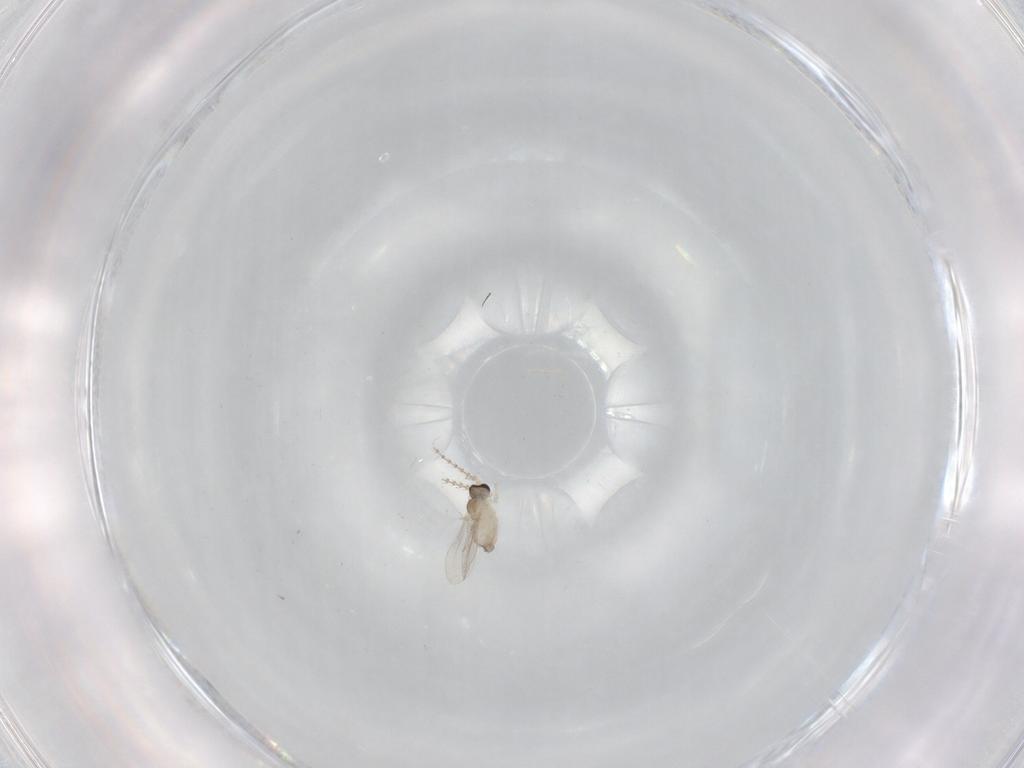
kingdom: Animalia
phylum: Arthropoda
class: Insecta
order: Diptera
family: Cecidomyiidae
